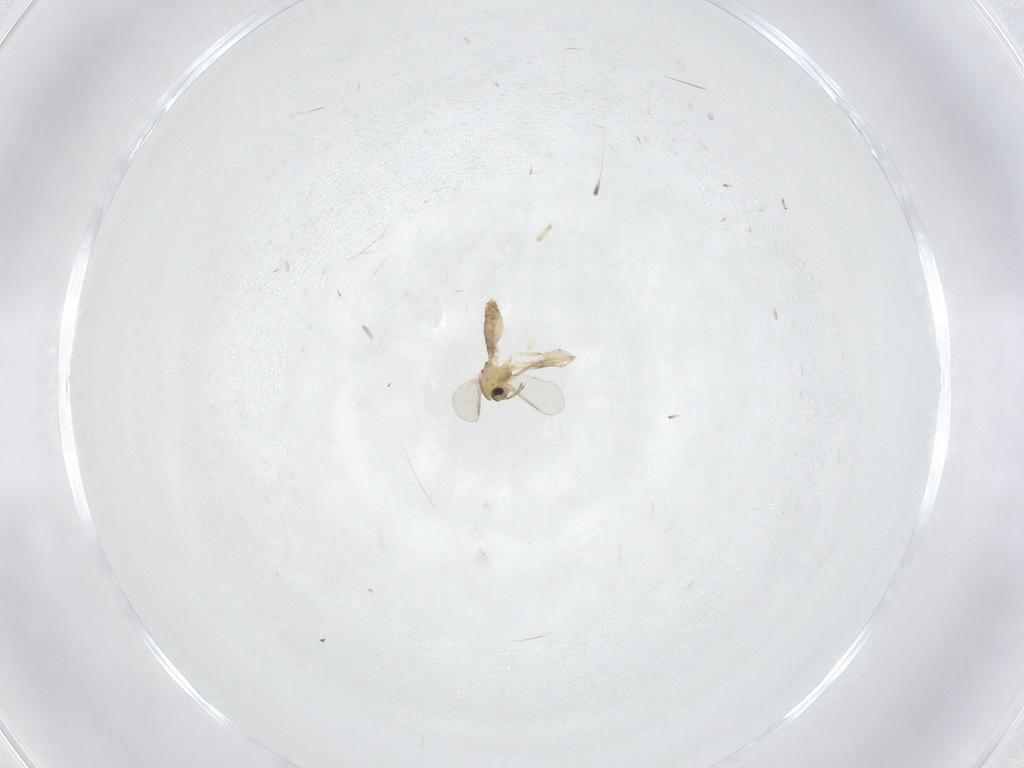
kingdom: Animalia
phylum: Arthropoda
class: Insecta
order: Diptera
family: Chironomidae
